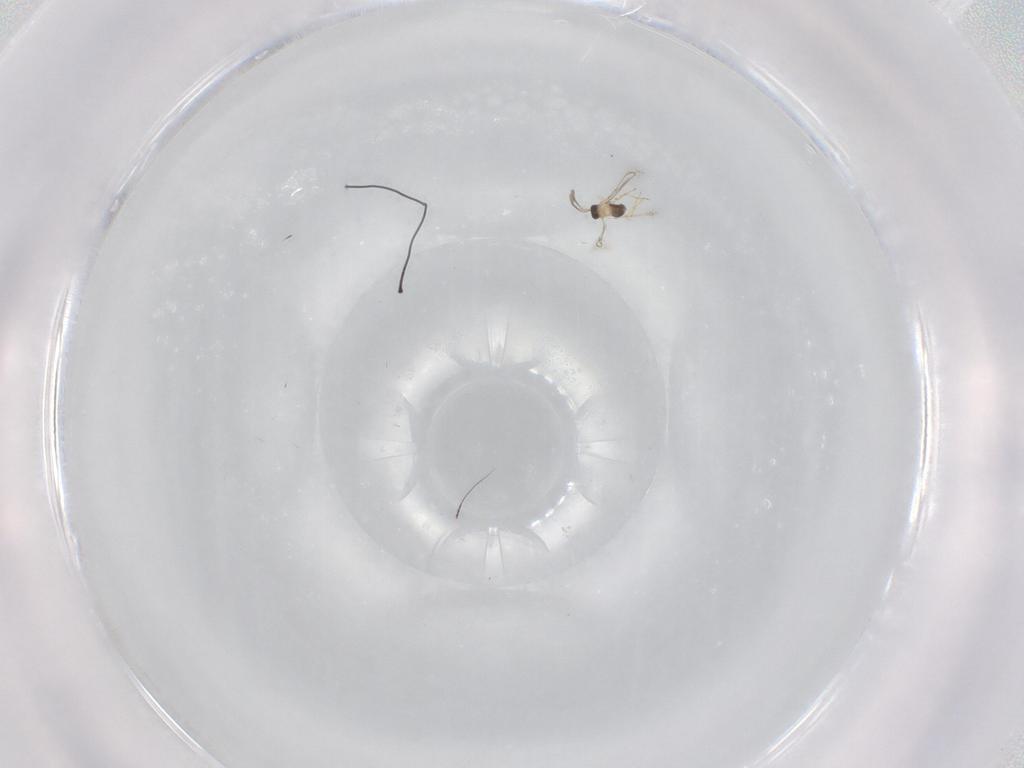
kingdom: Animalia
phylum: Arthropoda
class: Insecta
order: Hymenoptera
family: Mymaridae
